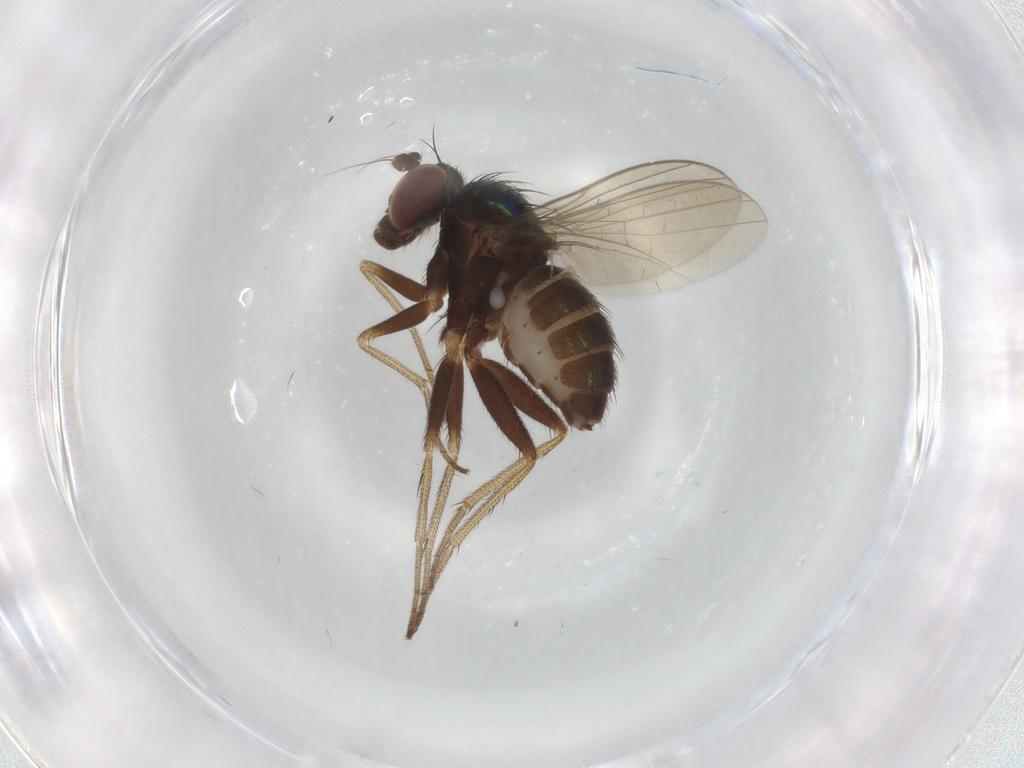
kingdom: Animalia
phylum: Arthropoda
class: Insecta
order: Diptera
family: Dolichopodidae
